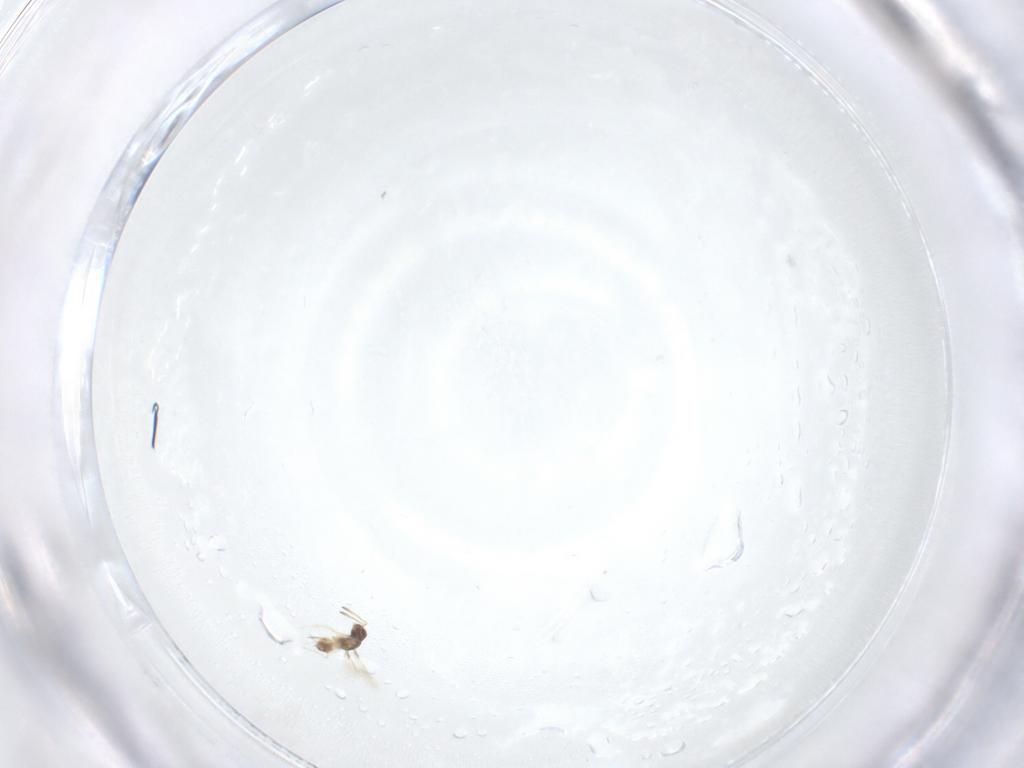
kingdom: Animalia
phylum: Arthropoda
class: Insecta
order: Hymenoptera
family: Mymaridae
